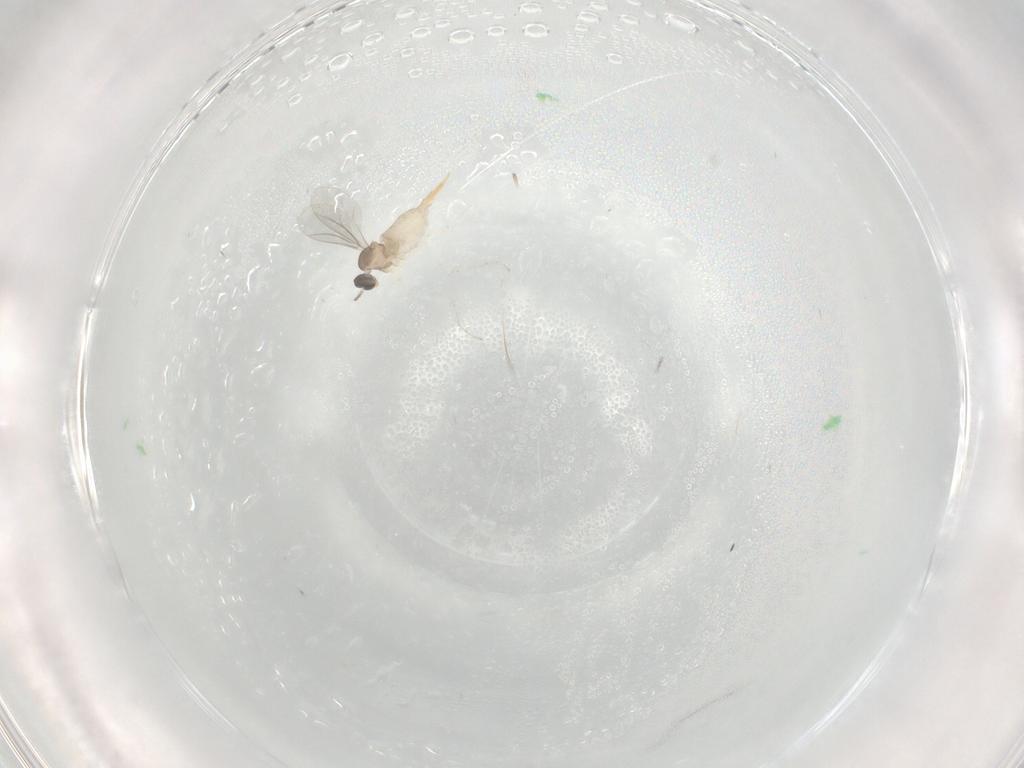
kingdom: Animalia
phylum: Arthropoda
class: Insecta
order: Diptera
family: Cecidomyiidae
